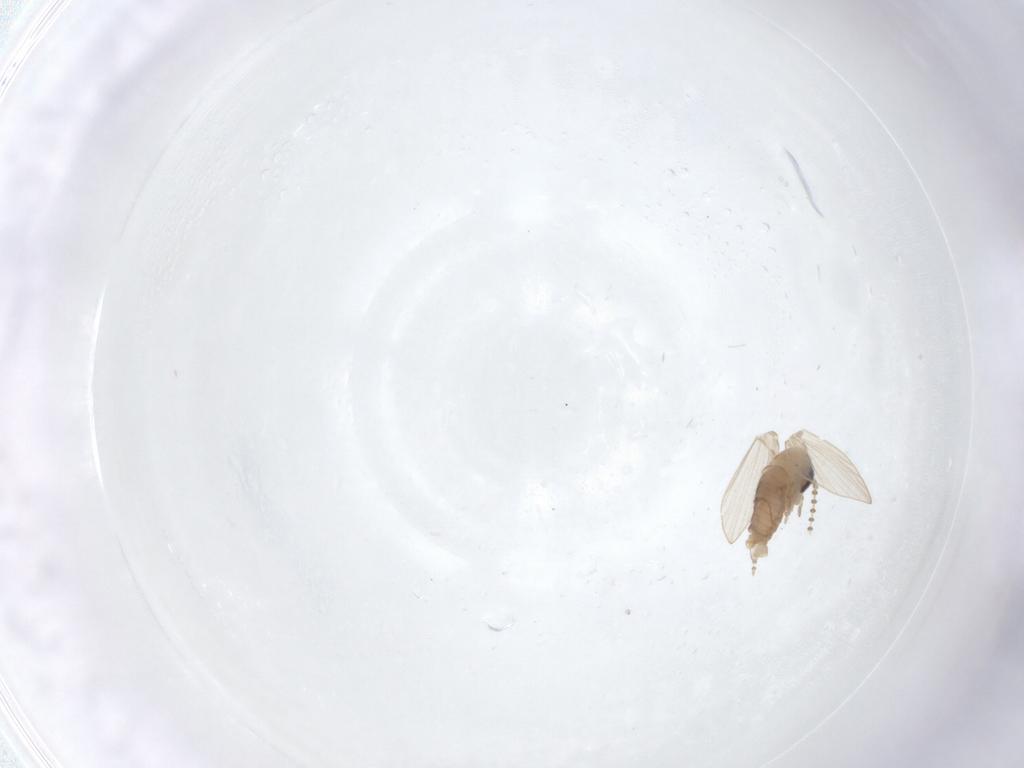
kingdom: Animalia
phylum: Arthropoda
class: Insecta
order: Diptera
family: Psychodidae
